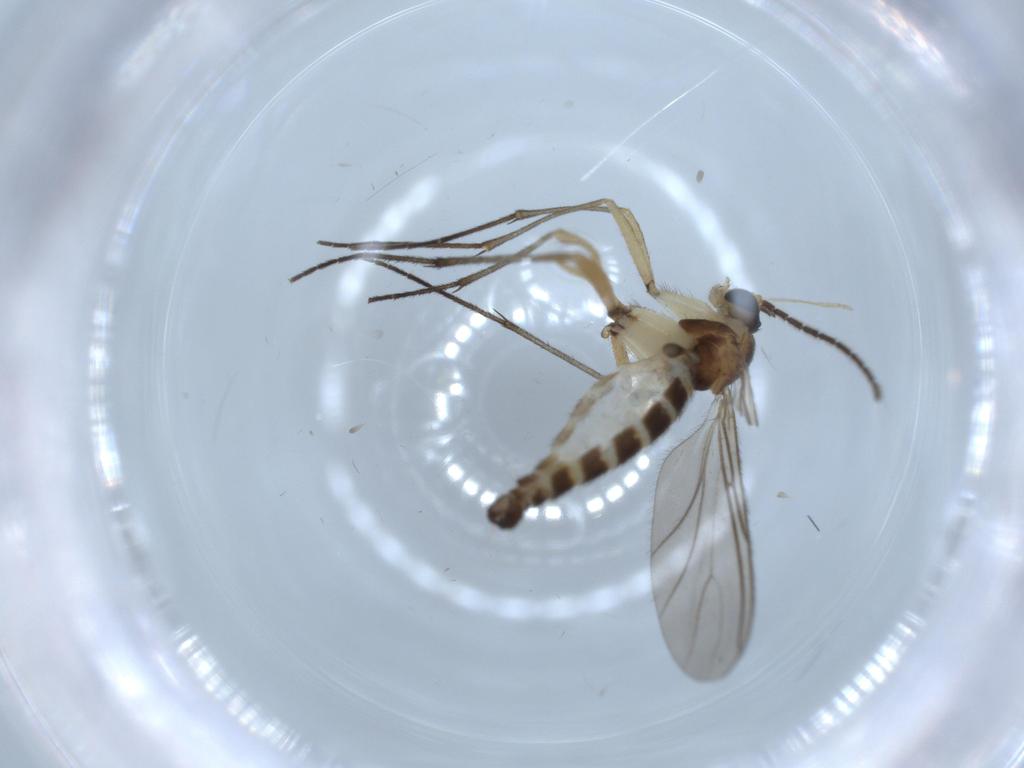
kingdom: Animalia
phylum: Arthropoda
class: Insecta
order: Diptera
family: Sciaridae
